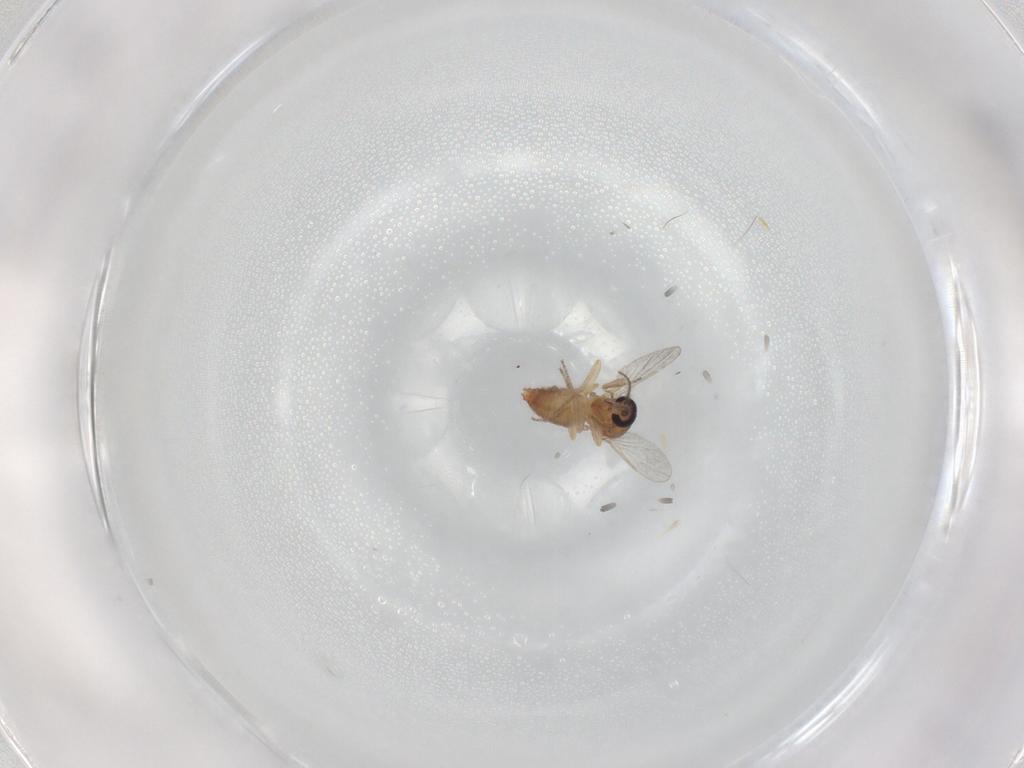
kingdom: Animalia
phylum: Arthropoda
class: Insecta
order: Diptera
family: Ceratopogonidae
